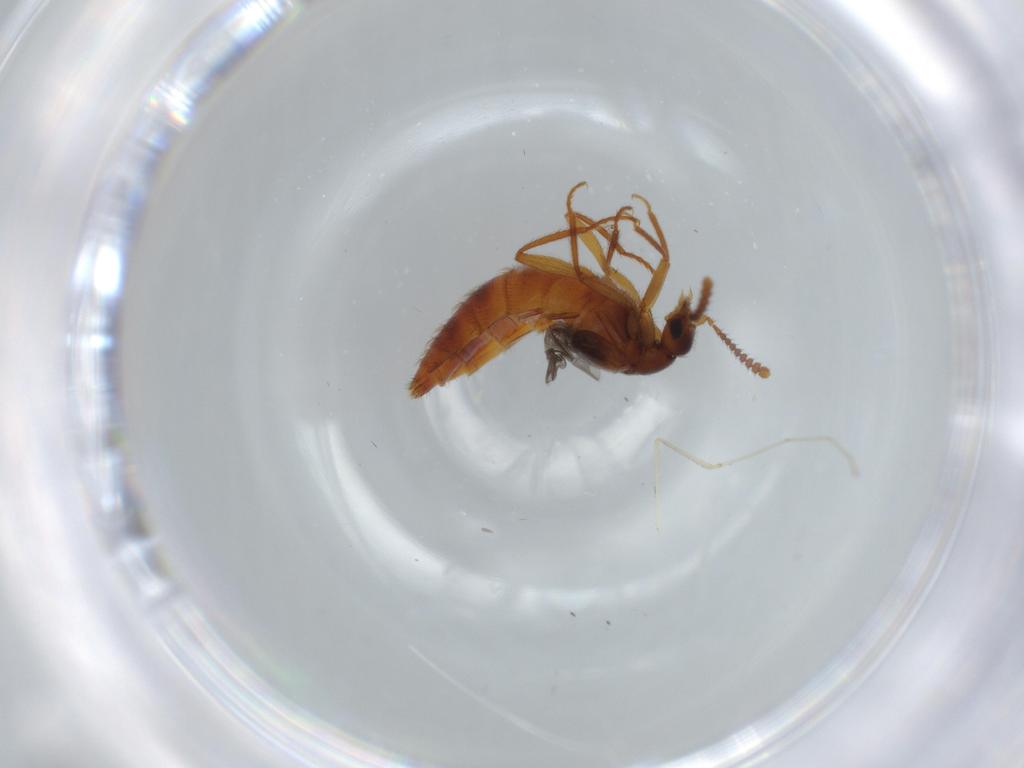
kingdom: Animalia
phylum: Arthropoda
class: Insecta
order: Coleoptera
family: Staphylinidae
